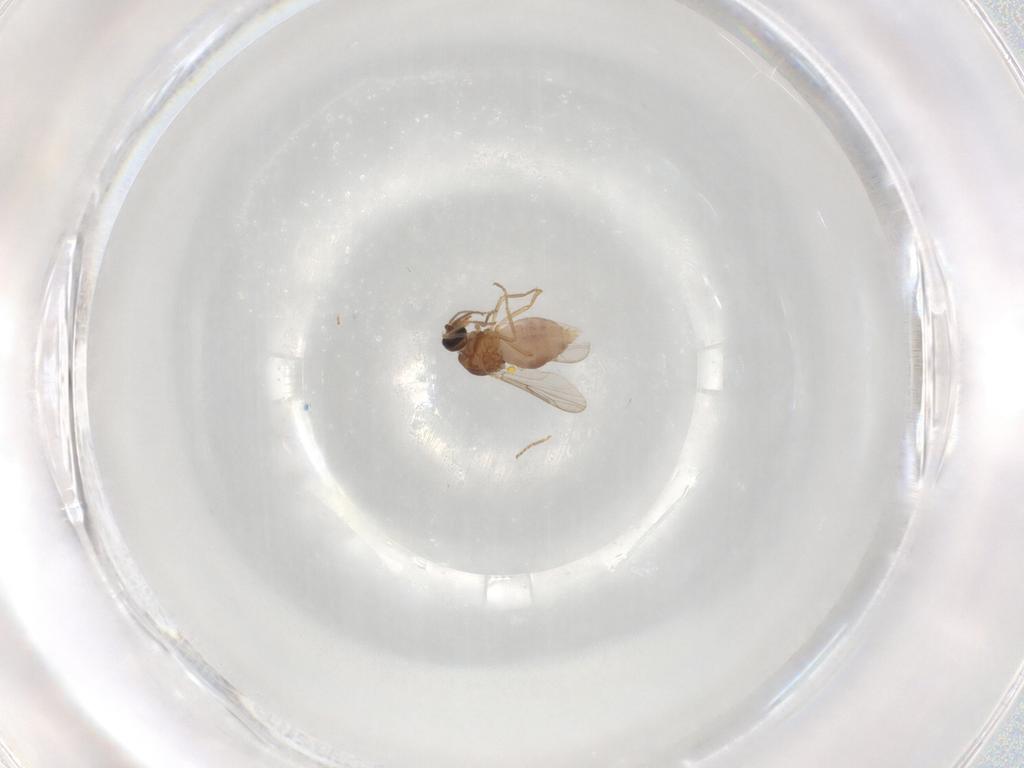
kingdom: Animalia
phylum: Arthropoda
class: Insecta
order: Diptera
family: Ceratopogonidae
